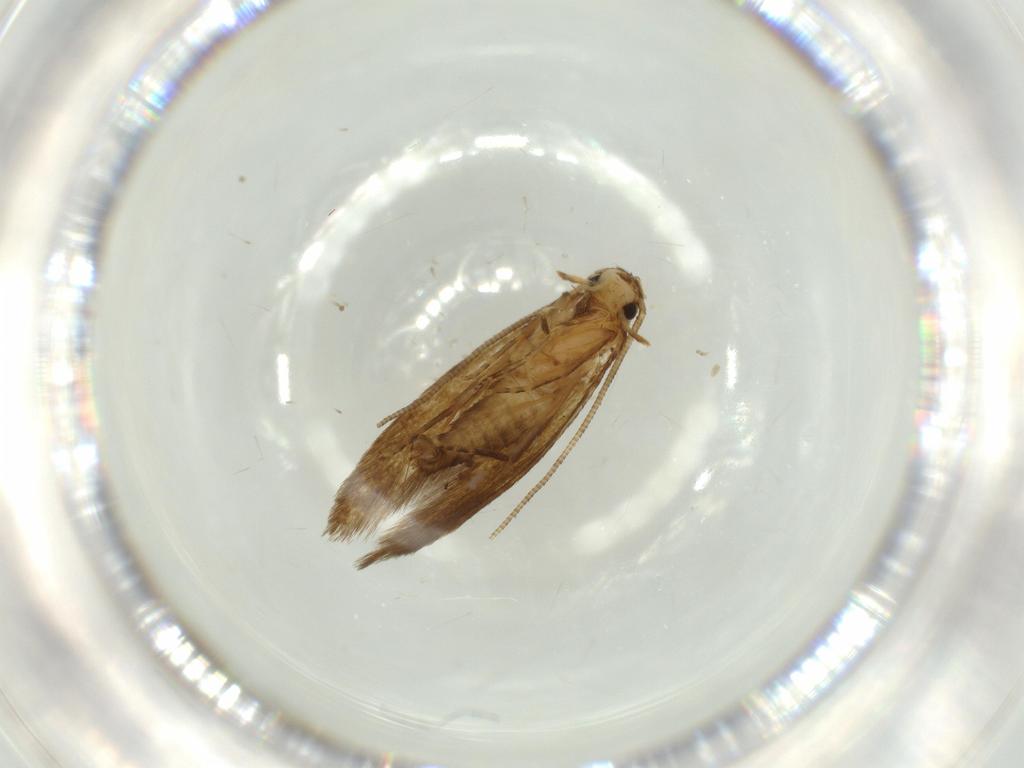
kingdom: Animalia
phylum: Arthropoda
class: Insecta
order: Lepidoptera
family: Tineidae
